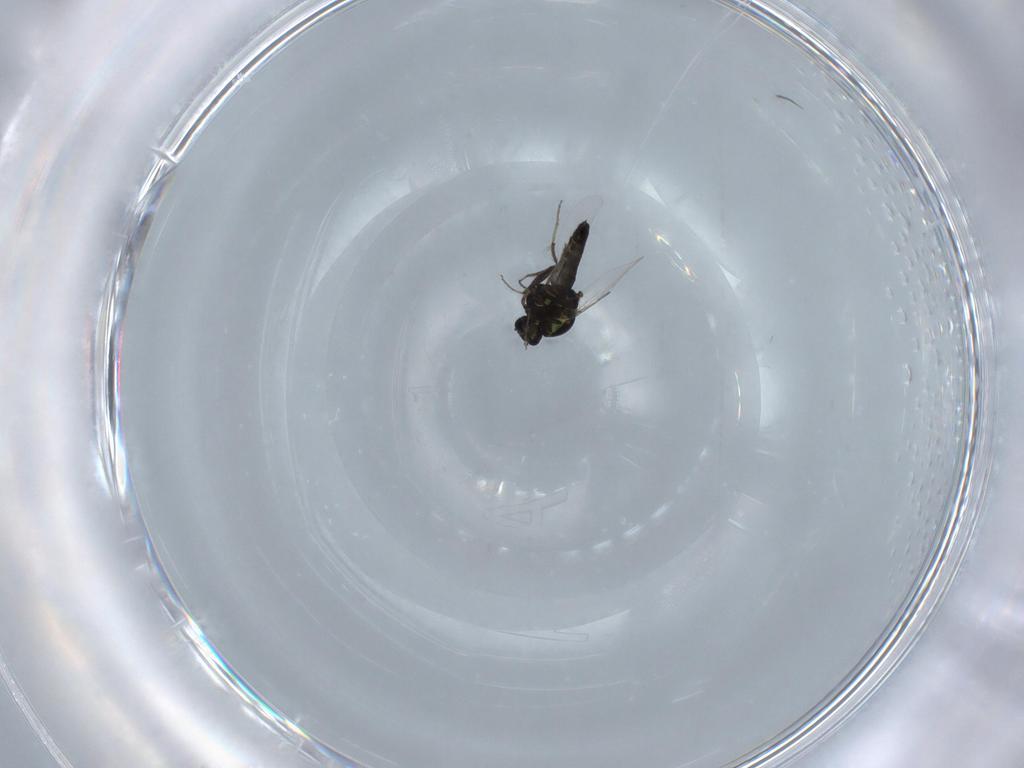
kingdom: Animalia
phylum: Arthropoda
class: Insecta
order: Diptera
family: Ceratopogonidae
